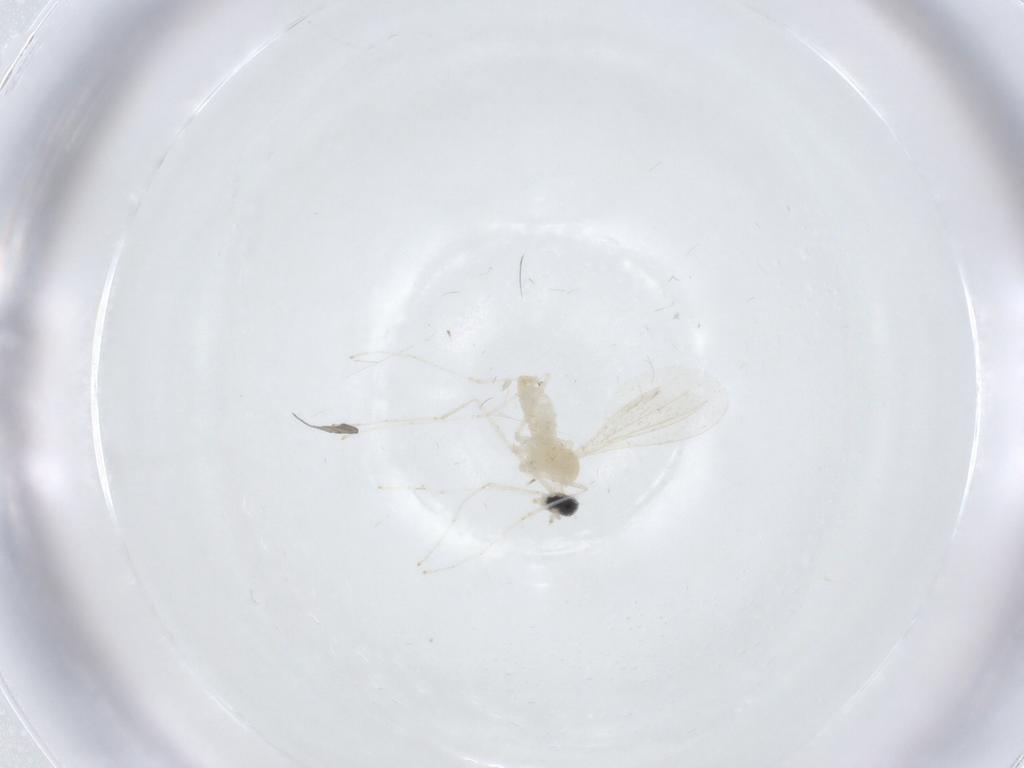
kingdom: Animalia
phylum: Arthropoda
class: Insecta
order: Diptera
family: Cecidomyiidae
